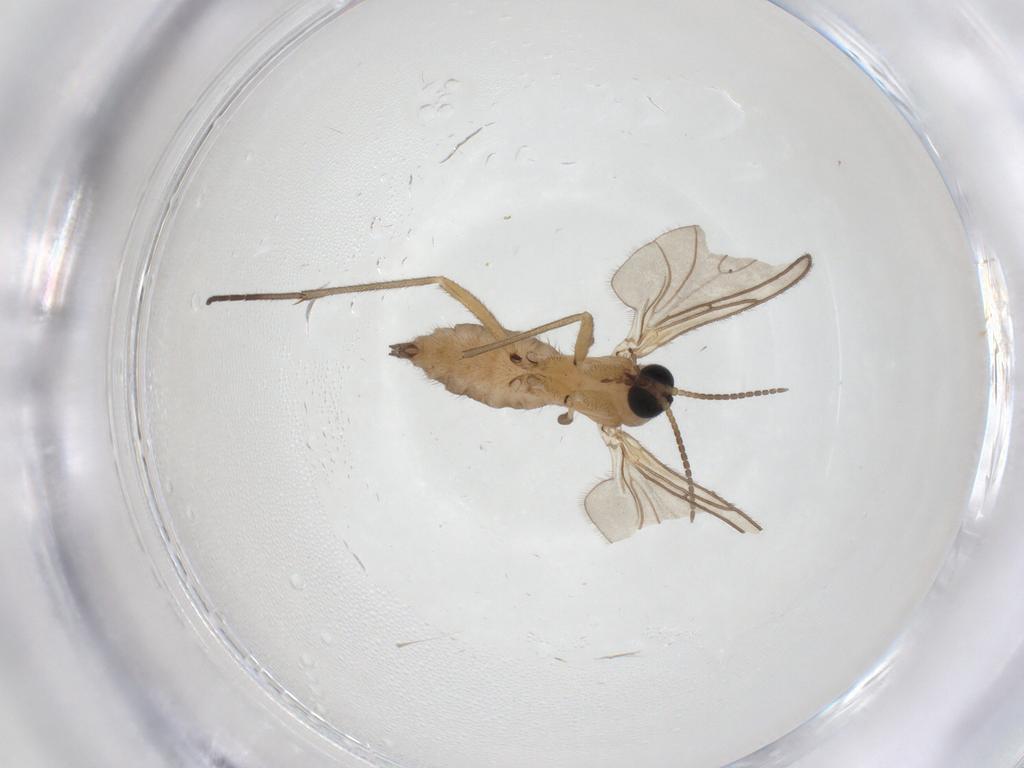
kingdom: Animalia
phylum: Arthropoda
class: Insecta
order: Diptera
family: Sciaridae
